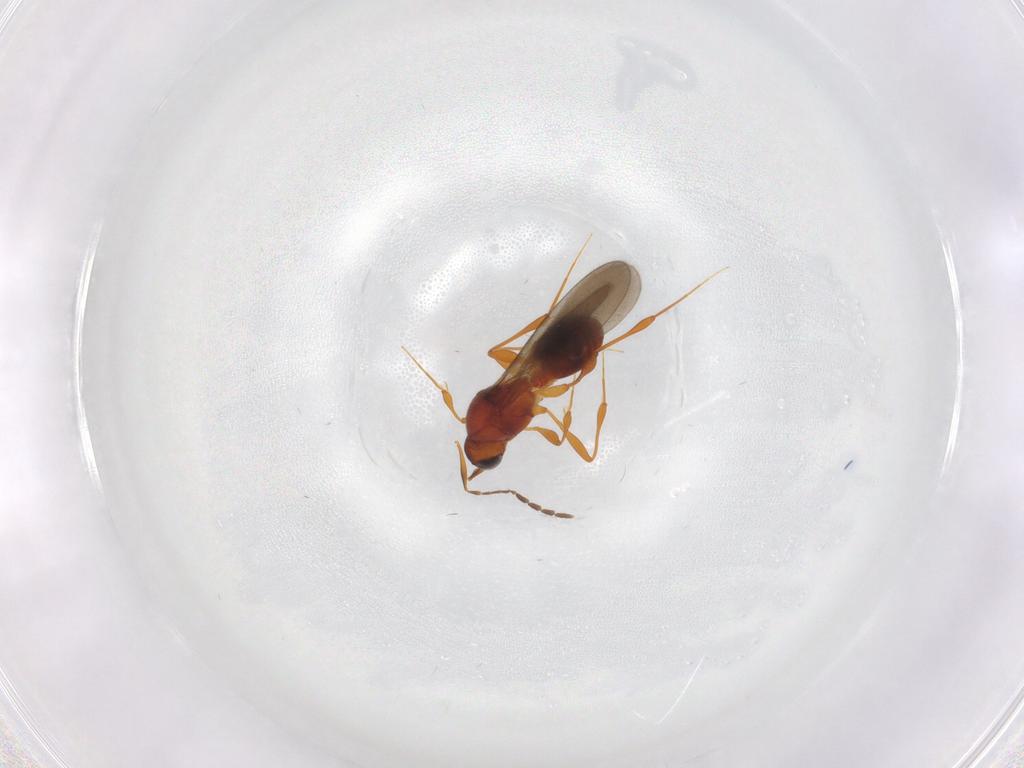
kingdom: Animalia
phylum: Arthropoda
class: Insecta
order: Hymenoptera
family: Platygastridae
